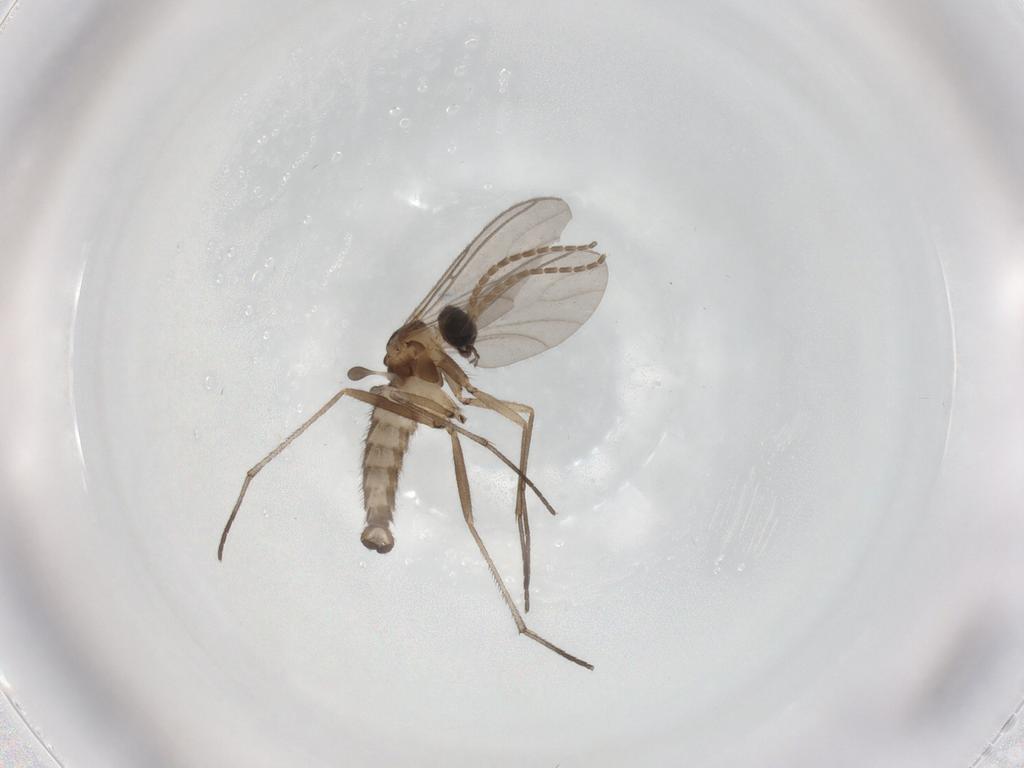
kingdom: Animalia
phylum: Arthropoda
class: Insecta
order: Diptera
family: Sciaridae
